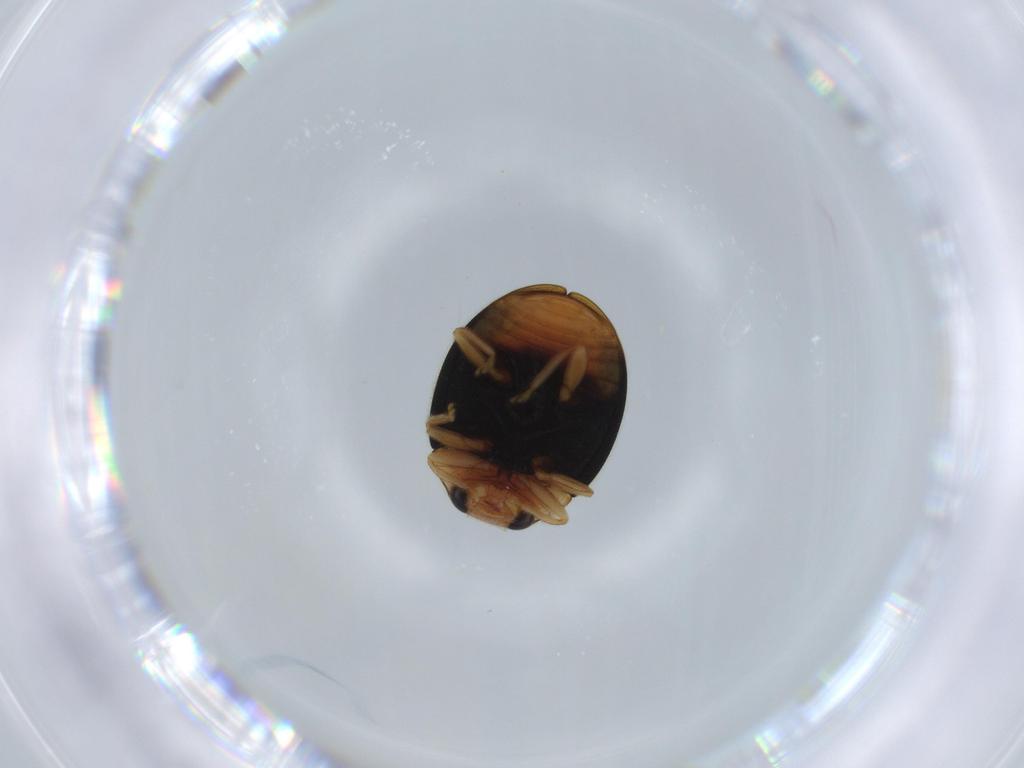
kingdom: Animalia
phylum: Arthropoda
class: Insecta
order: Coleoptera
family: Coccinellidae
